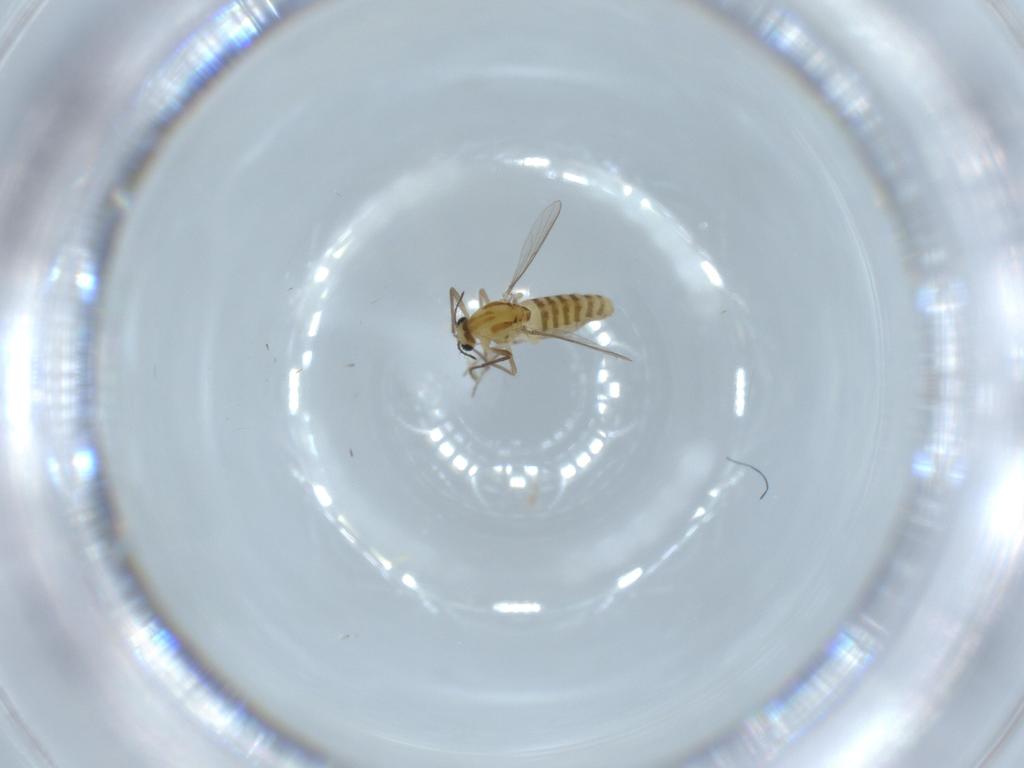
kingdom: Animalia
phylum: Arthropoda
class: Insecta
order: Diptera
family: Chironomidae
